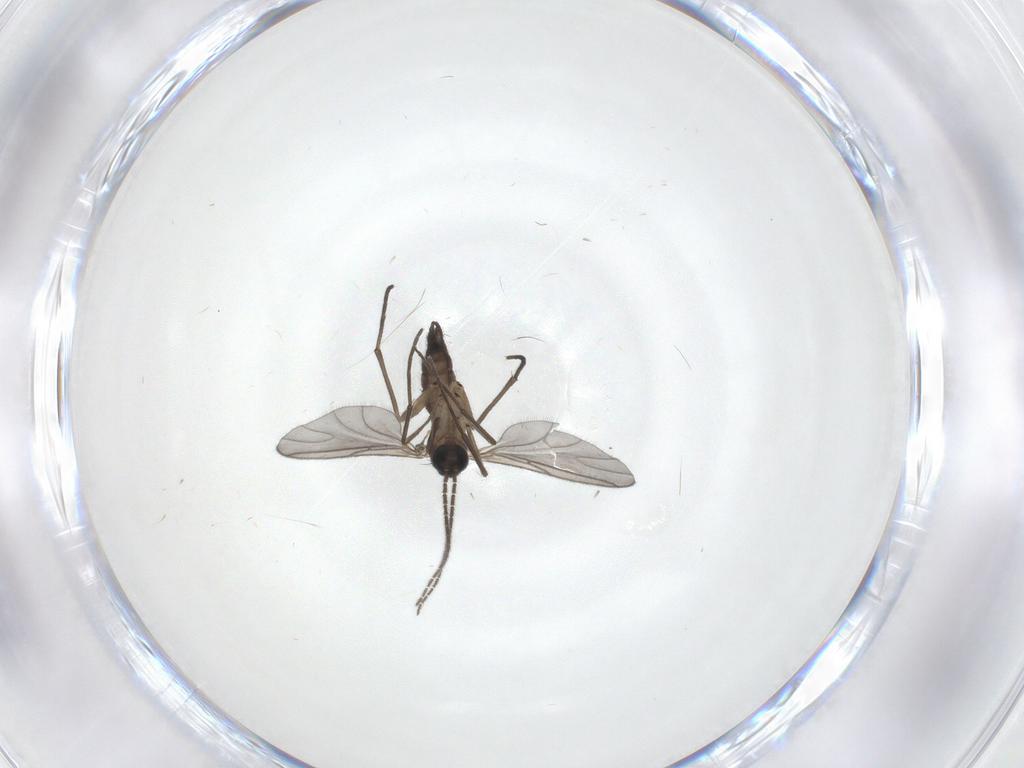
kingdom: Animalia
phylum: Arthropoda
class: Insecta
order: Diptera
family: Sciaridae
